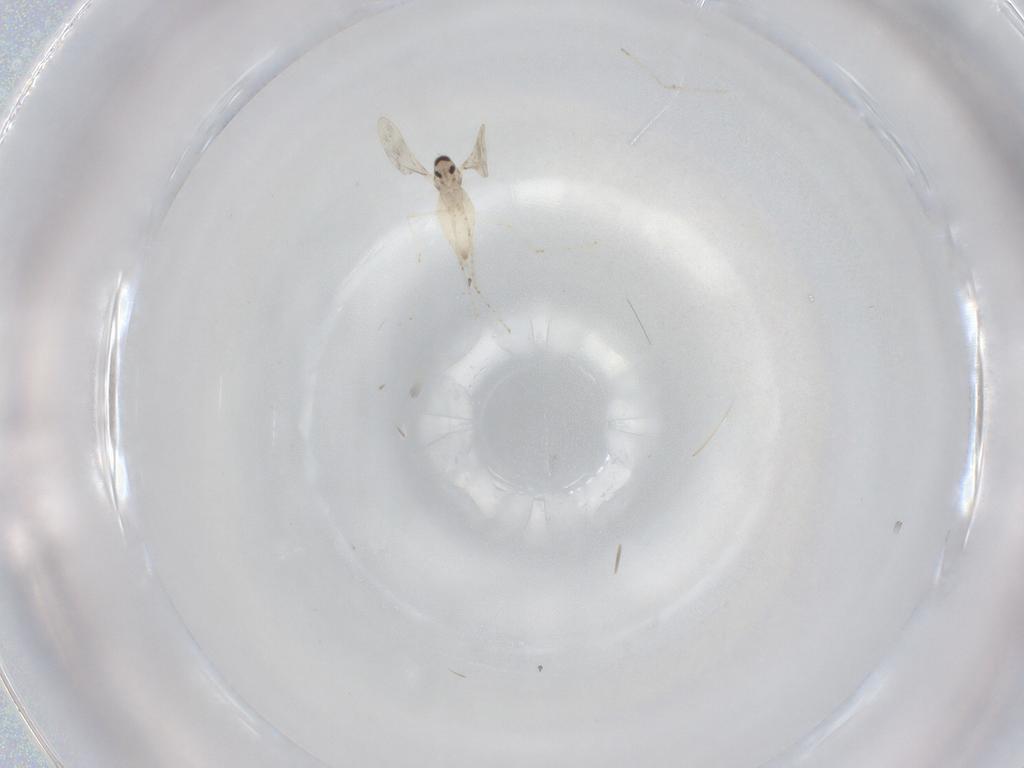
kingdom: Animalia
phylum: Arthropoda
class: Insecta
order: Diptera
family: Cecidomyiidae
